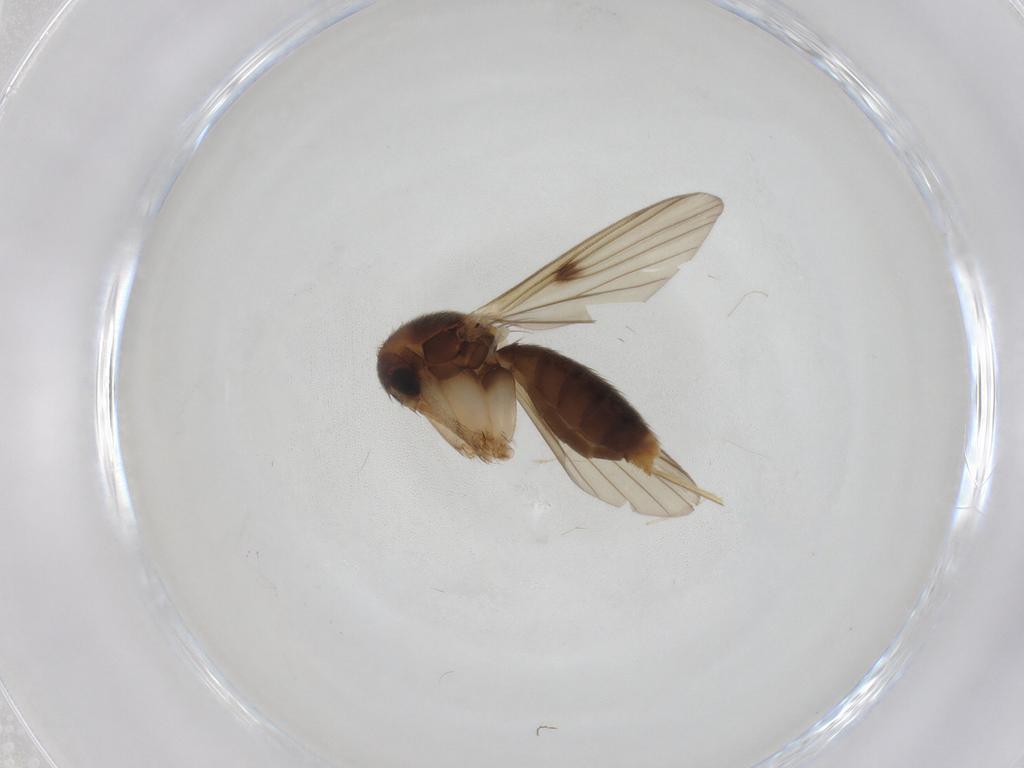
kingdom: Animalia
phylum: Arthropoda
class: Insecta
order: Diptera
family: Mycetophilidae
